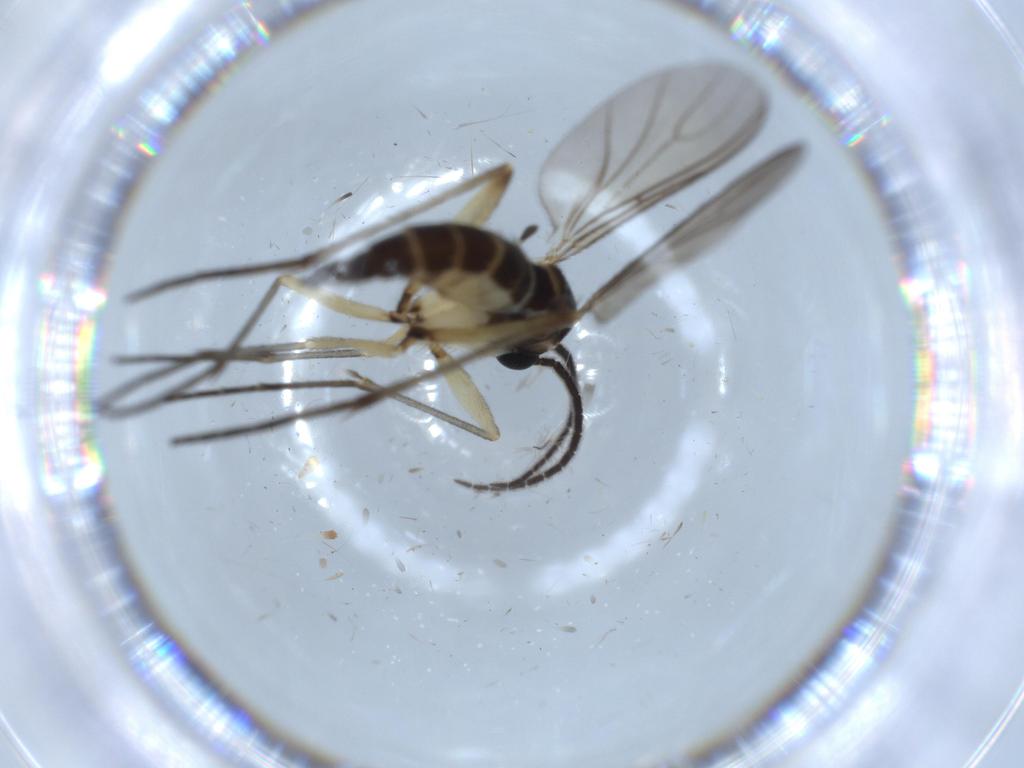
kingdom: Animalia
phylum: Arthropoda
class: Insecta
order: Diptera
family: Sciaridae
